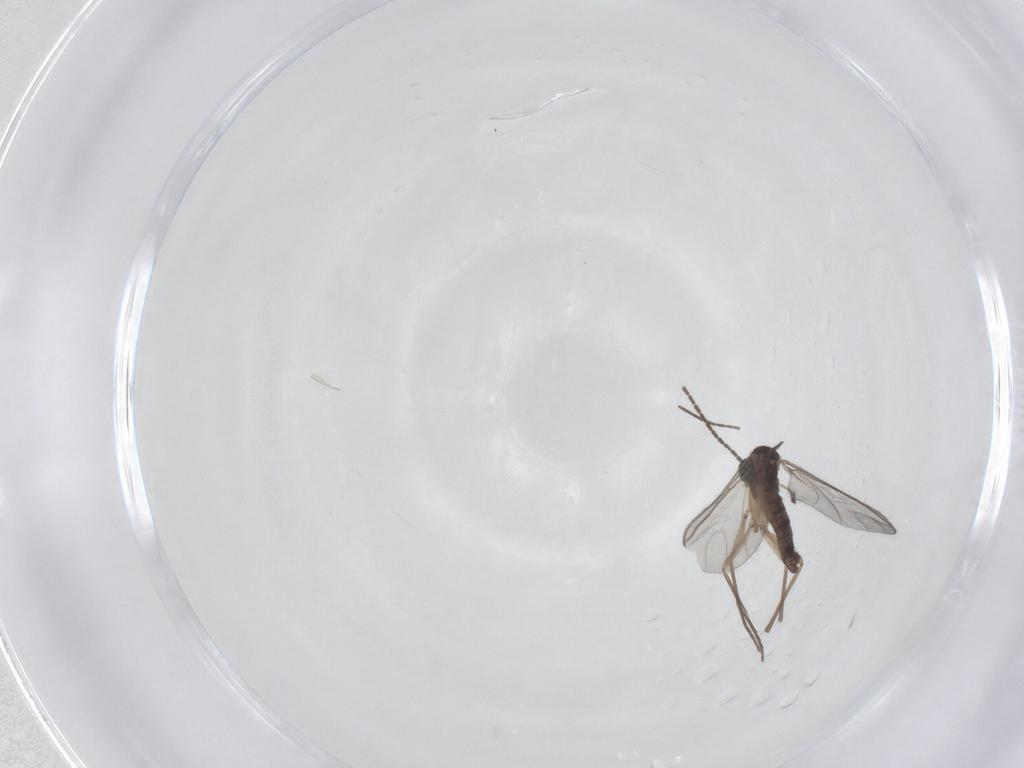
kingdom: Animalia
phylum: Arthropoda
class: Insecta
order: Diptera
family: Sciaridae
